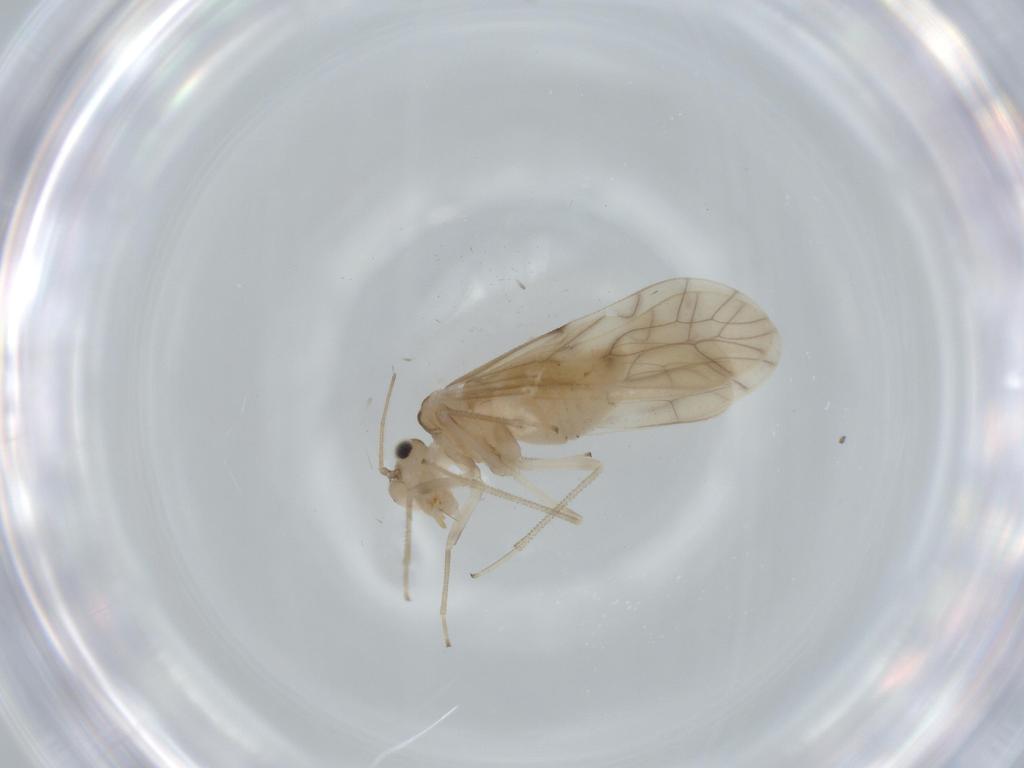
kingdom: Animalia
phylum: Arthropoda
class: Insecta
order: Psocodea
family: Caeciliusidae
